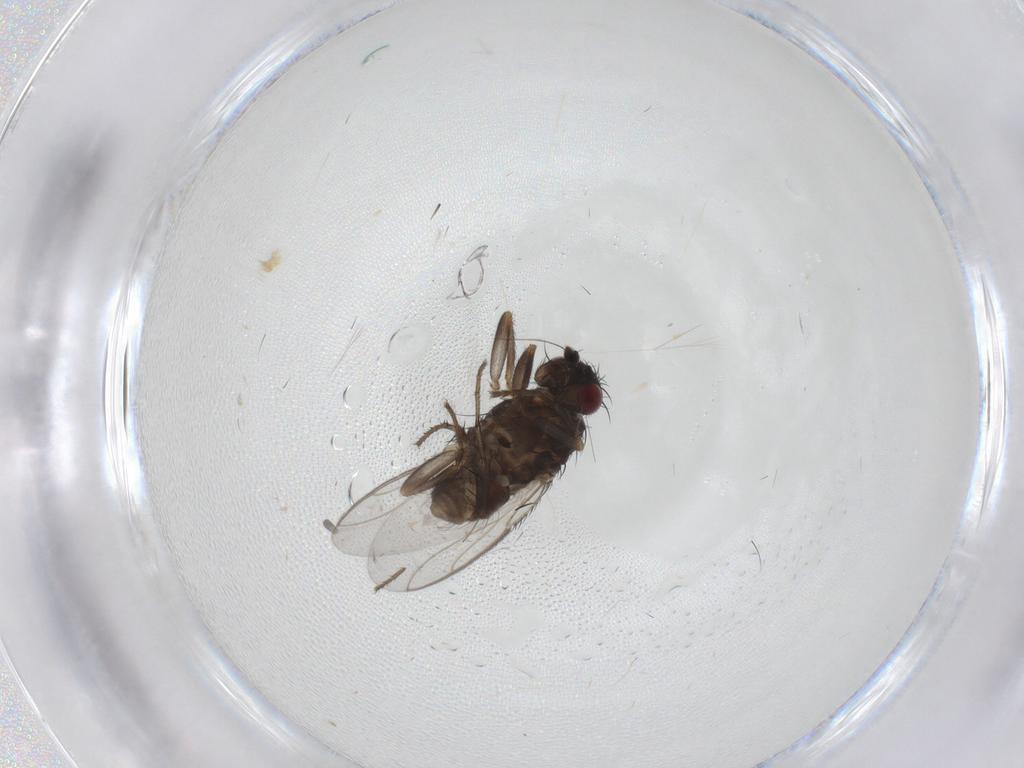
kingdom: Animalia
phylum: Arthropoda
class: Insecta
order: Diptera
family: Sphaeroceridae
